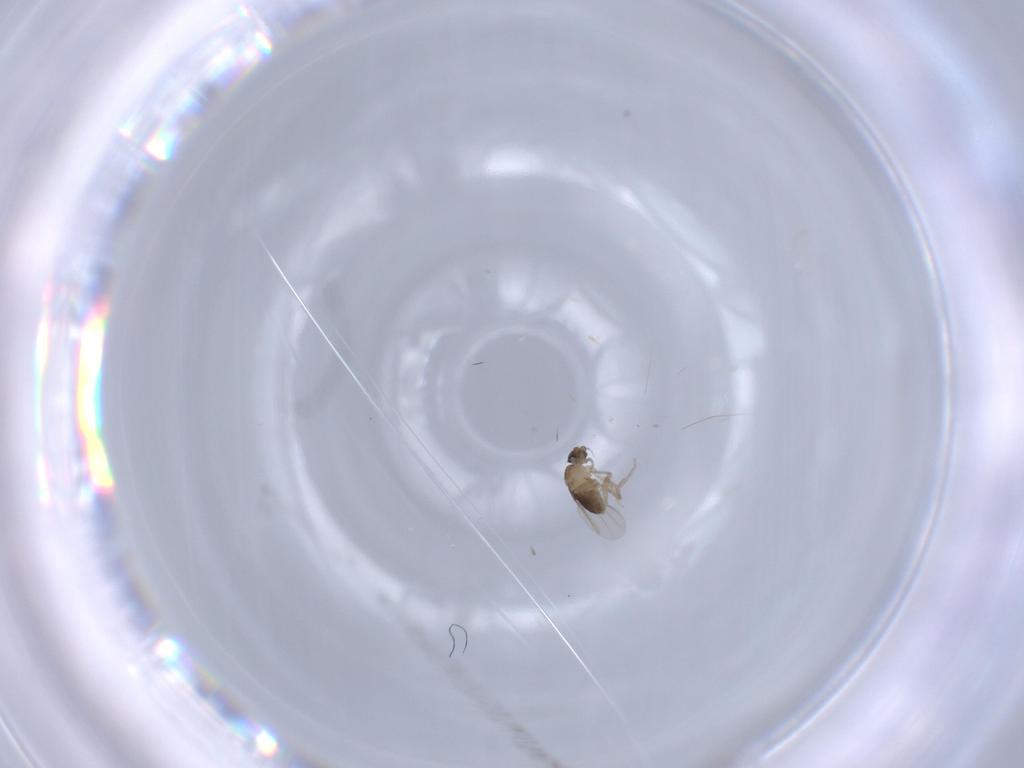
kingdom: Animalia
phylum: Arthropoda
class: Insecta
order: Diptera
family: Phoridae
